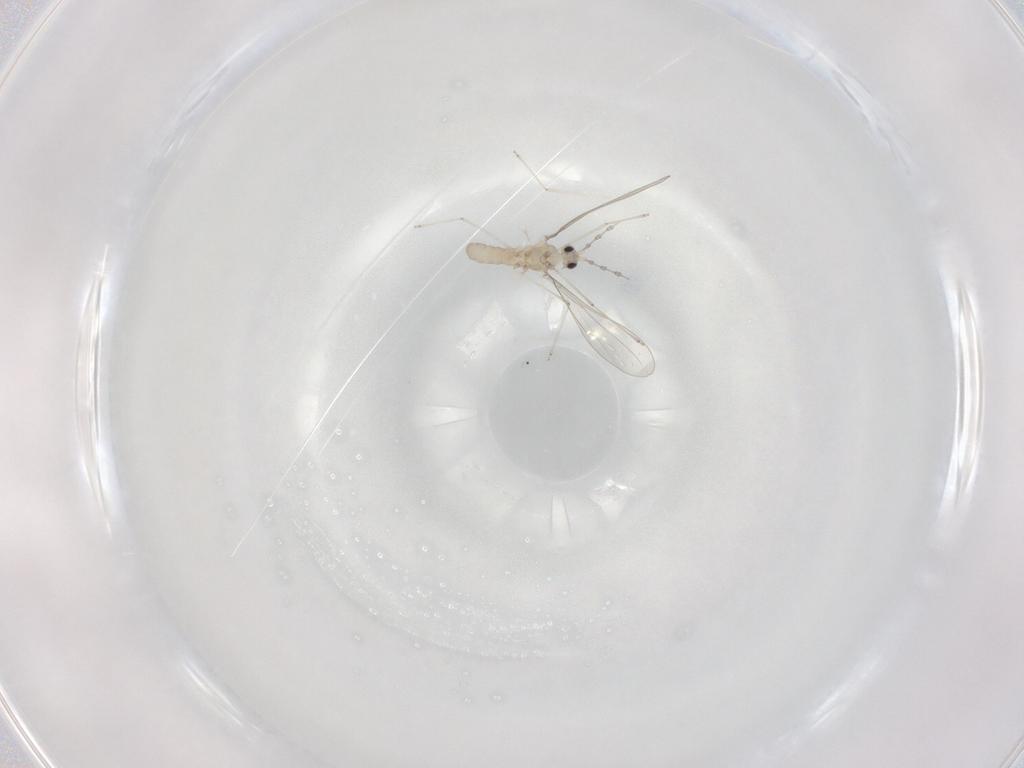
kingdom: Animalia
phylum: Arthropoda
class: Insecta
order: Diptera
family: Cecidomyiidae
